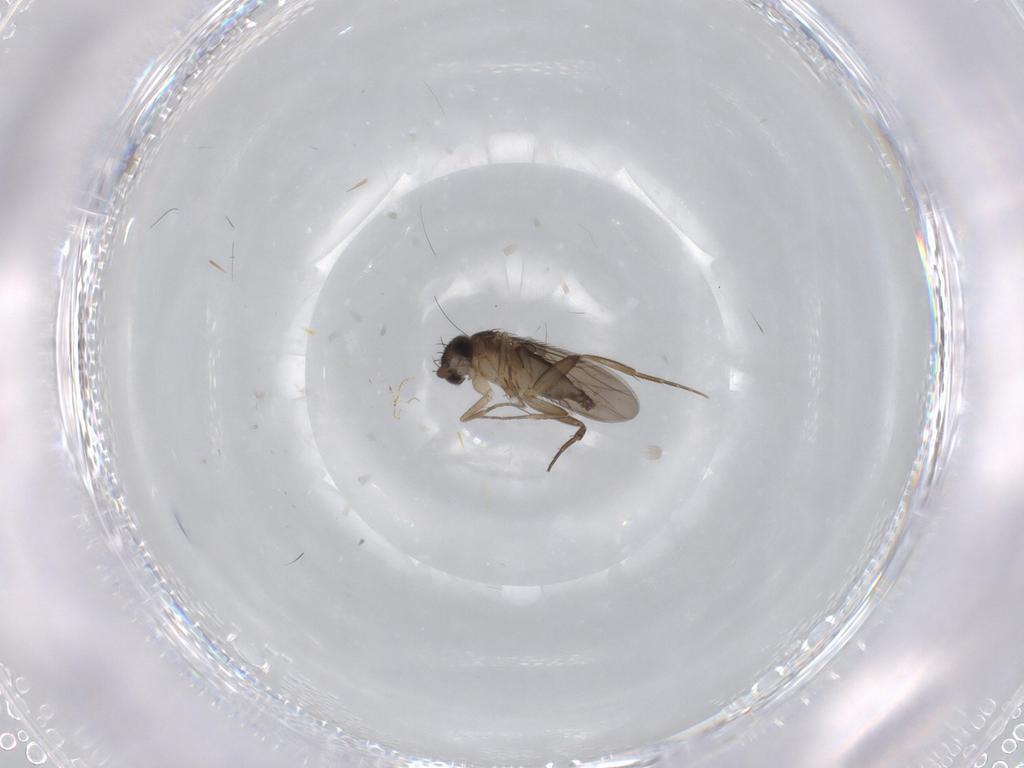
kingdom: Animalia
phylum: Arthropoda
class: Insecta
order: Diptera
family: Phoridae
